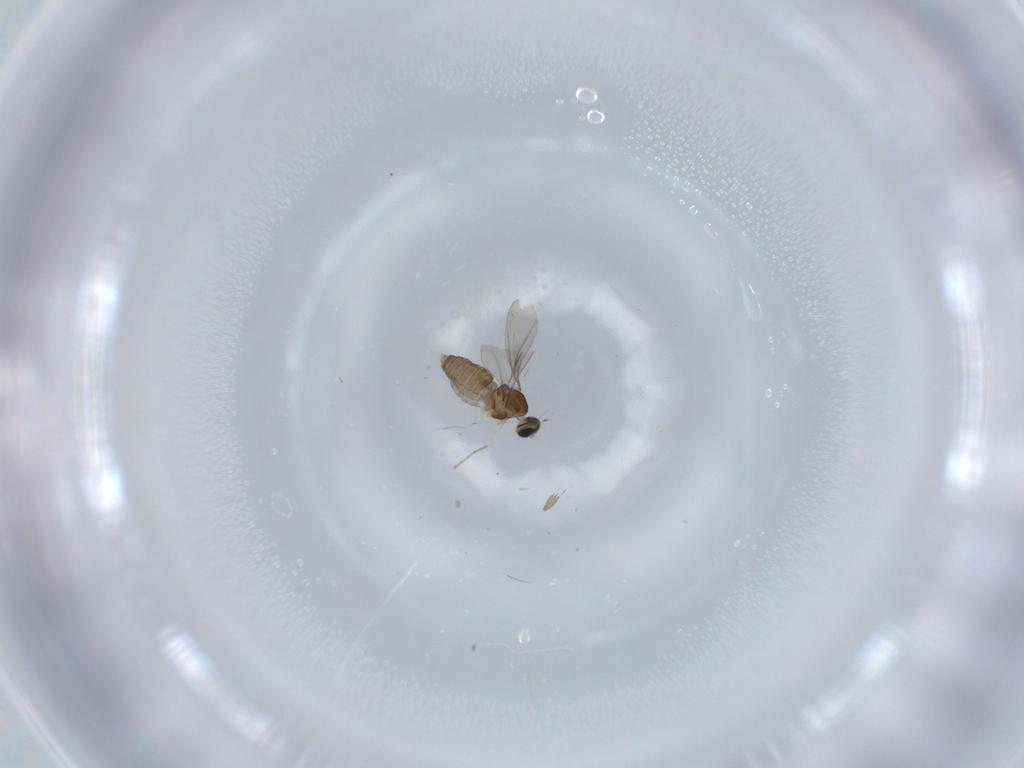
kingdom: Animalia
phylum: Arthropoda
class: Insecta
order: Diptera
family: Cecidomyiidae
